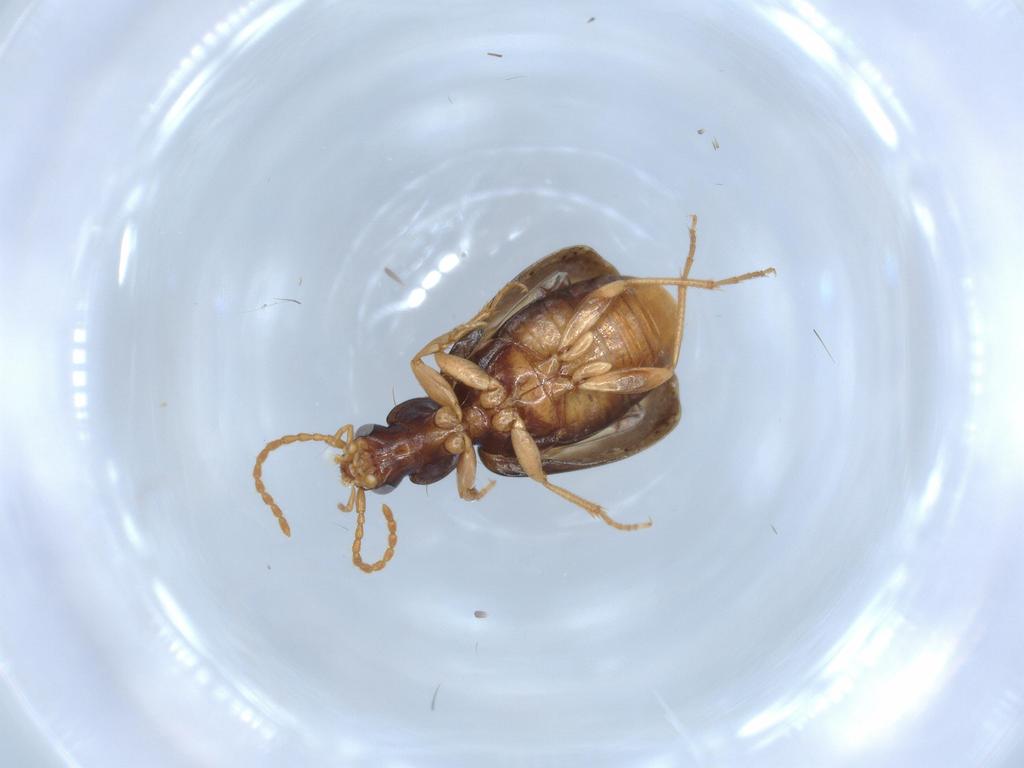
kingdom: Animalia
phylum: Arthropoda
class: Insecta
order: Coleoptera
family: Carabidae
